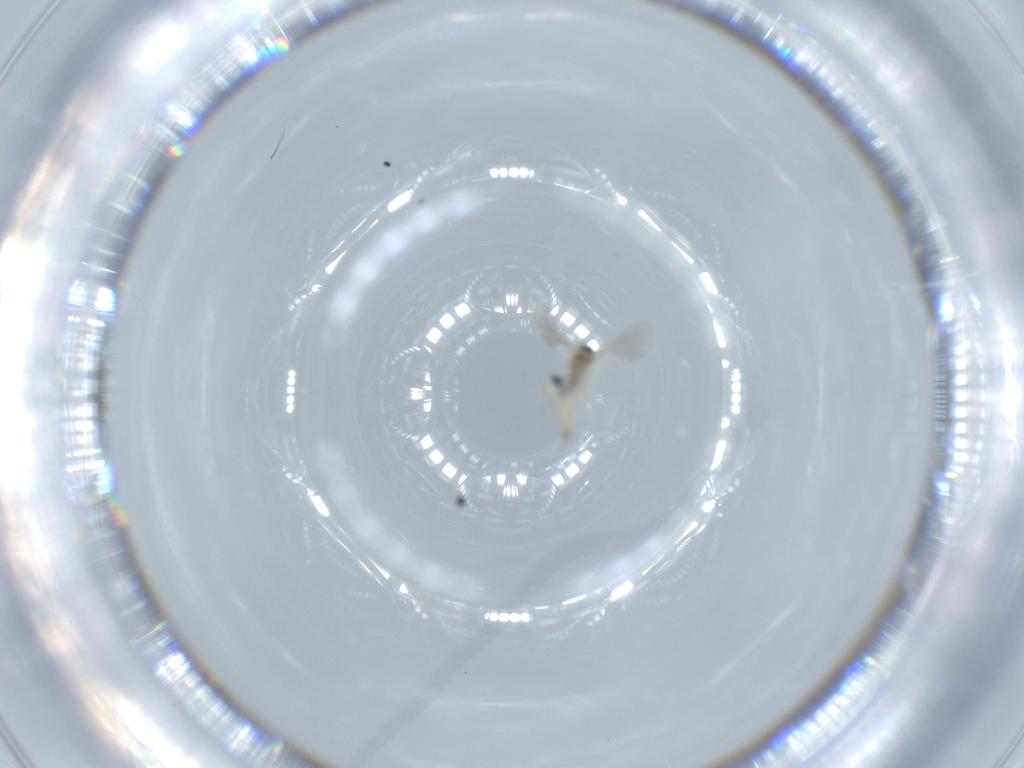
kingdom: Animalia
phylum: Arthropoda
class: Insecta
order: Diptera
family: Cecidomyiidae
